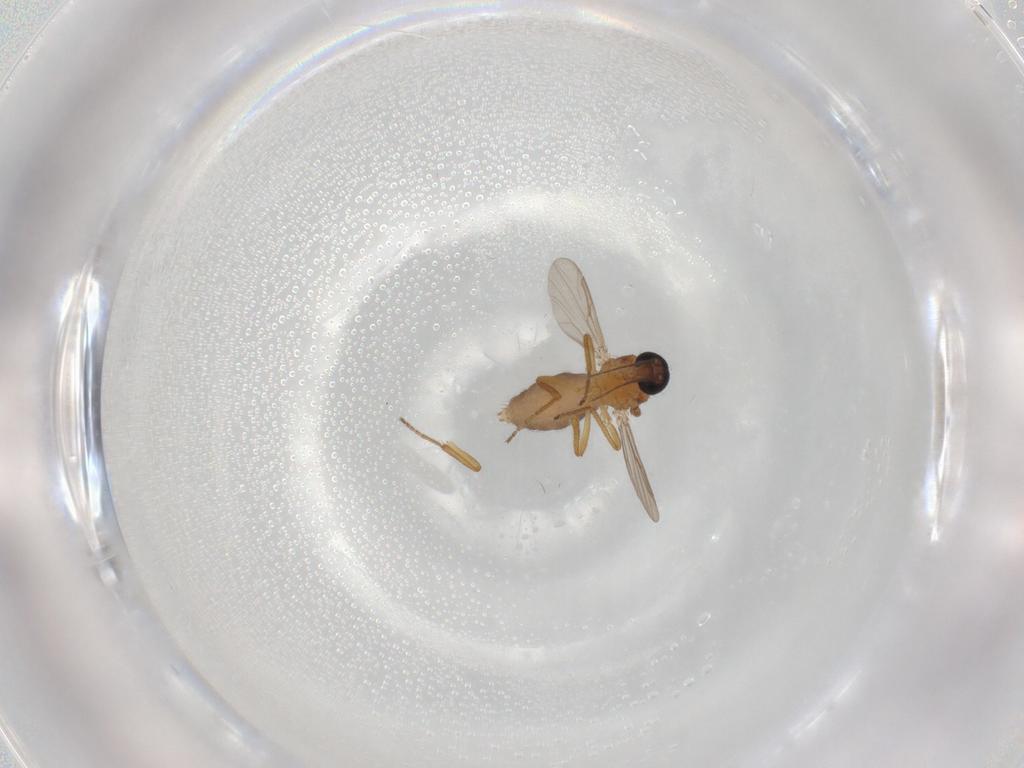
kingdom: Animalia
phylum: Arthropoda
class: Insecta
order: Diptera
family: Ceratopogonidae
